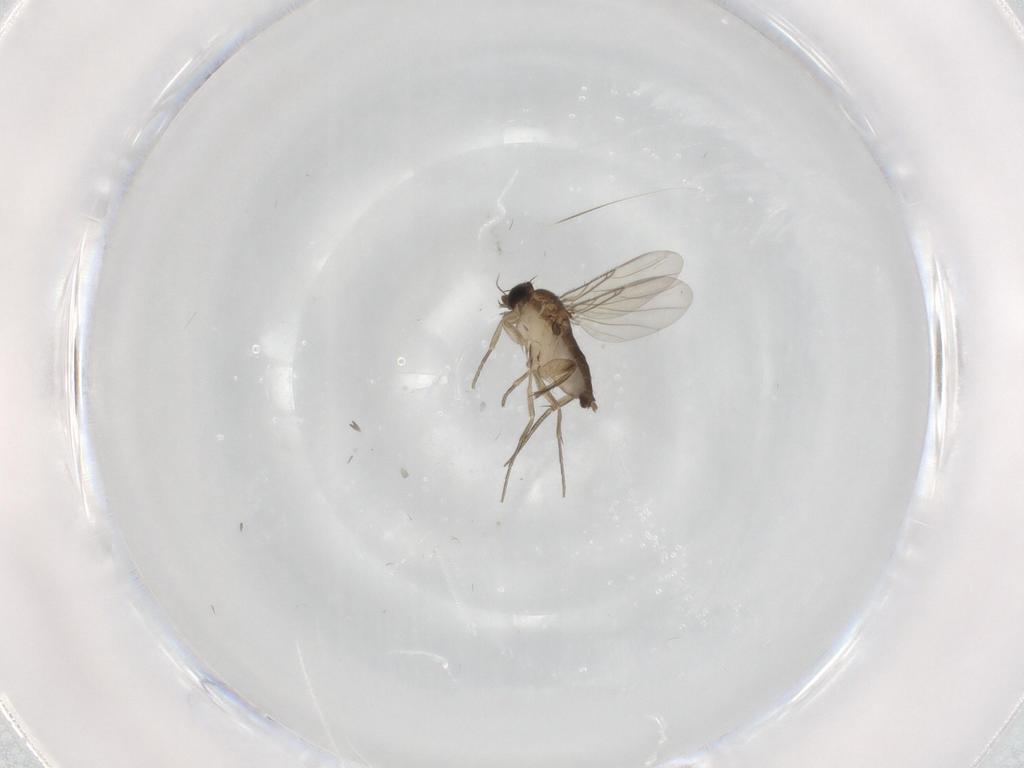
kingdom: Animalia
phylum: Arthropoda
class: Insecta
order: Diptera
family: Phoridae
